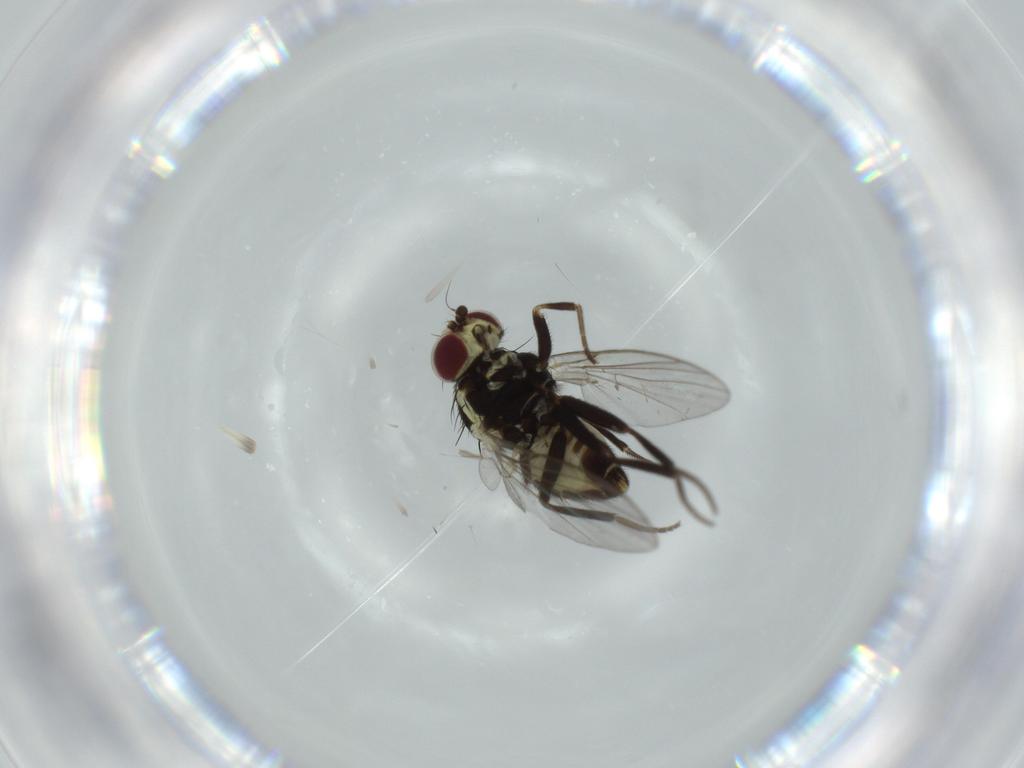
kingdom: Animalia
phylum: Arthropoda
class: Insecta
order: Diptera
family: Agromyzidae
